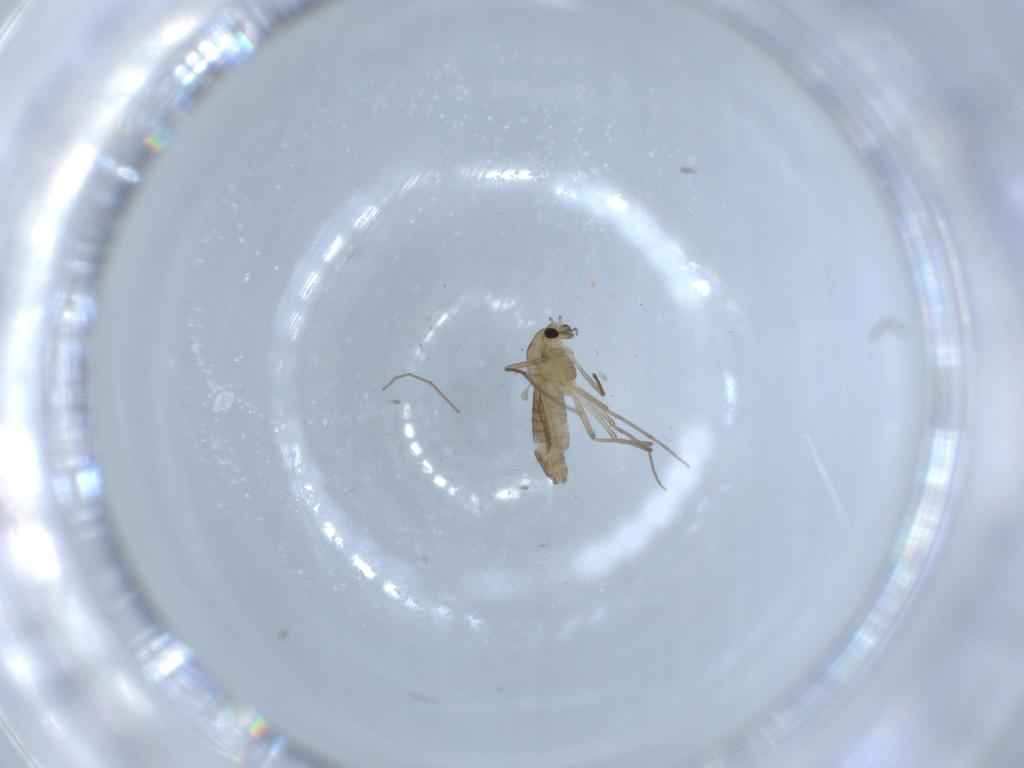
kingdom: Animalia
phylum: Arthropoda
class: Insecta
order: Diptera
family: Chironomidae
